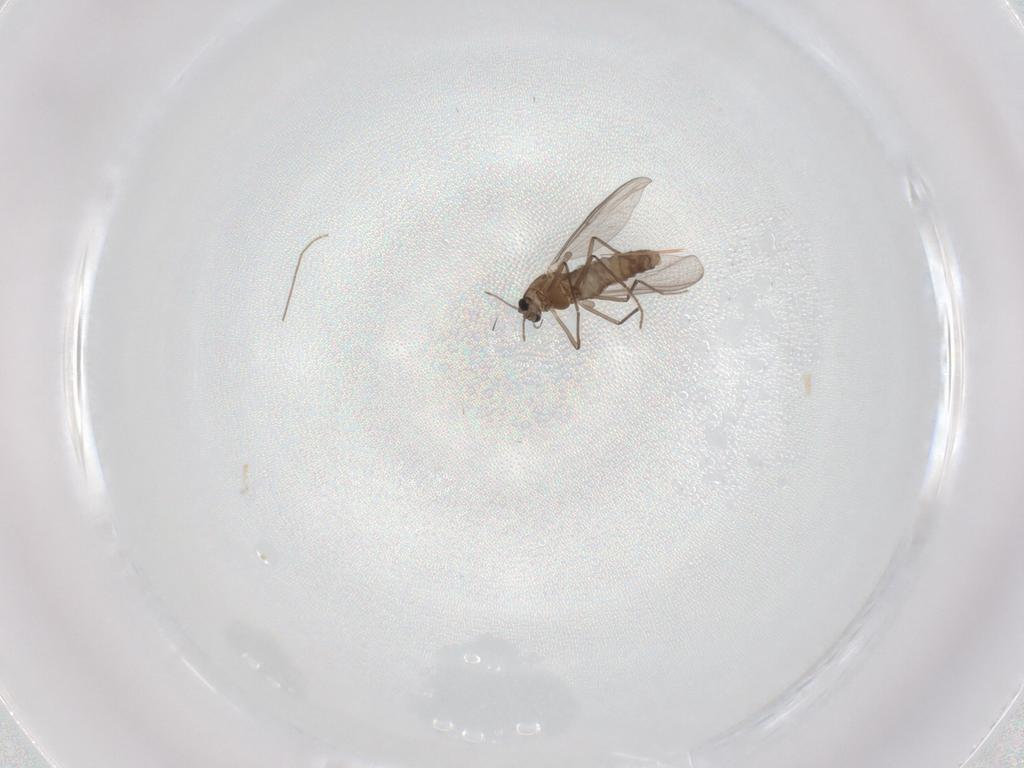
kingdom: Animalia
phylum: Arthropoda
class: Insecta
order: Diptera
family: Chironomidae
